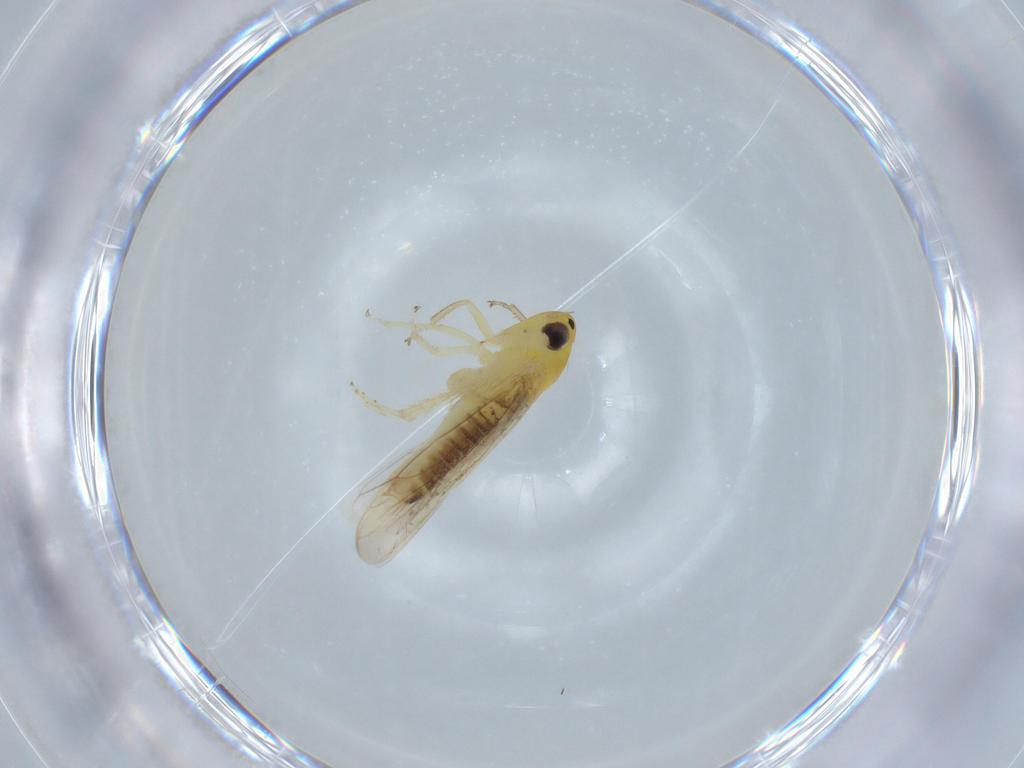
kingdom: Animalia
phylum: Arthropoda
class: Insecta
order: Hemiptera
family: Cicadellidae
